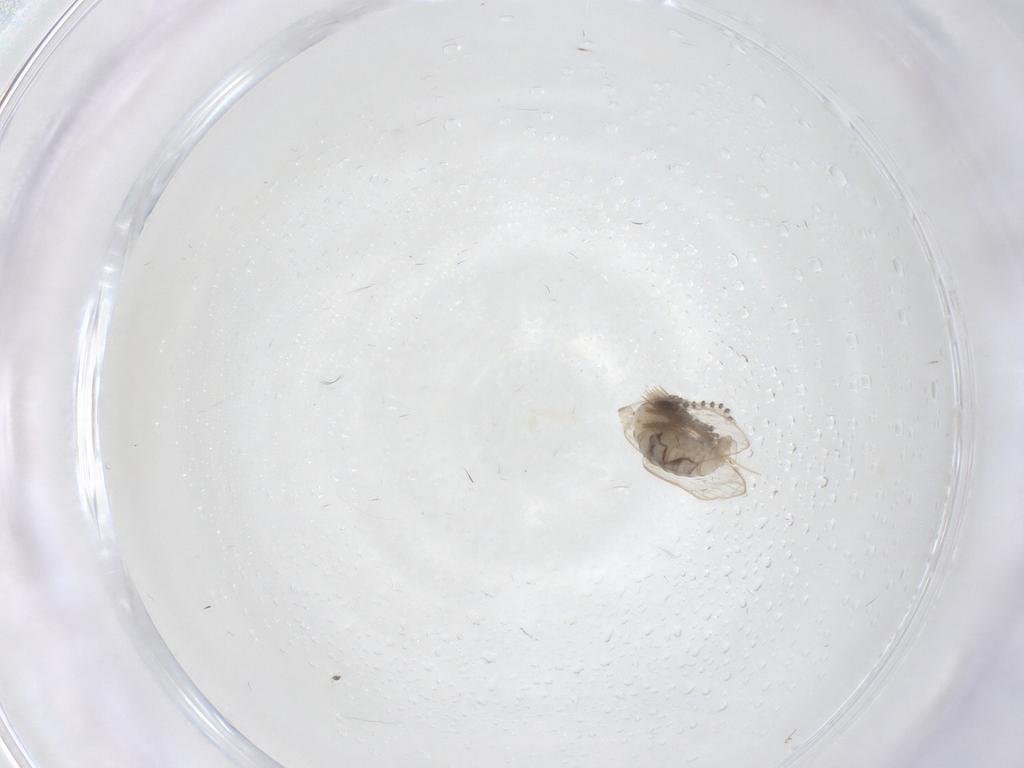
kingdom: Animalia
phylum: Arthropoda
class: Insecta
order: Diptera
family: Psychodidae
